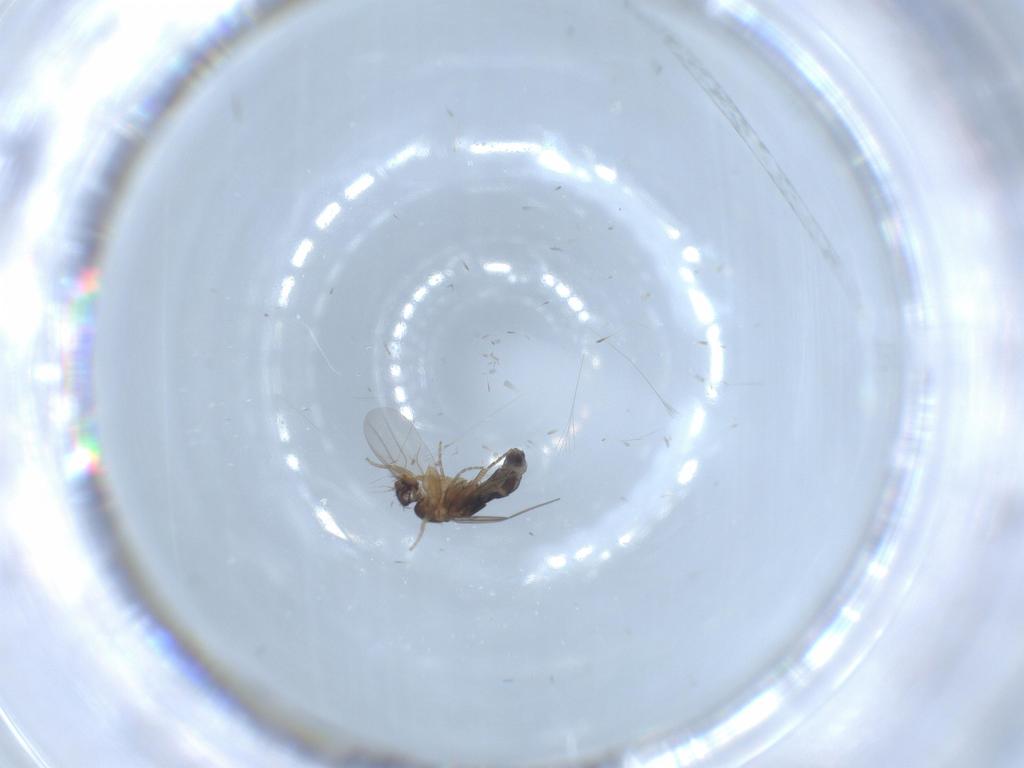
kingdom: Animalia
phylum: Arthropoda
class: Insecta
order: Diptera
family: Phoridae
